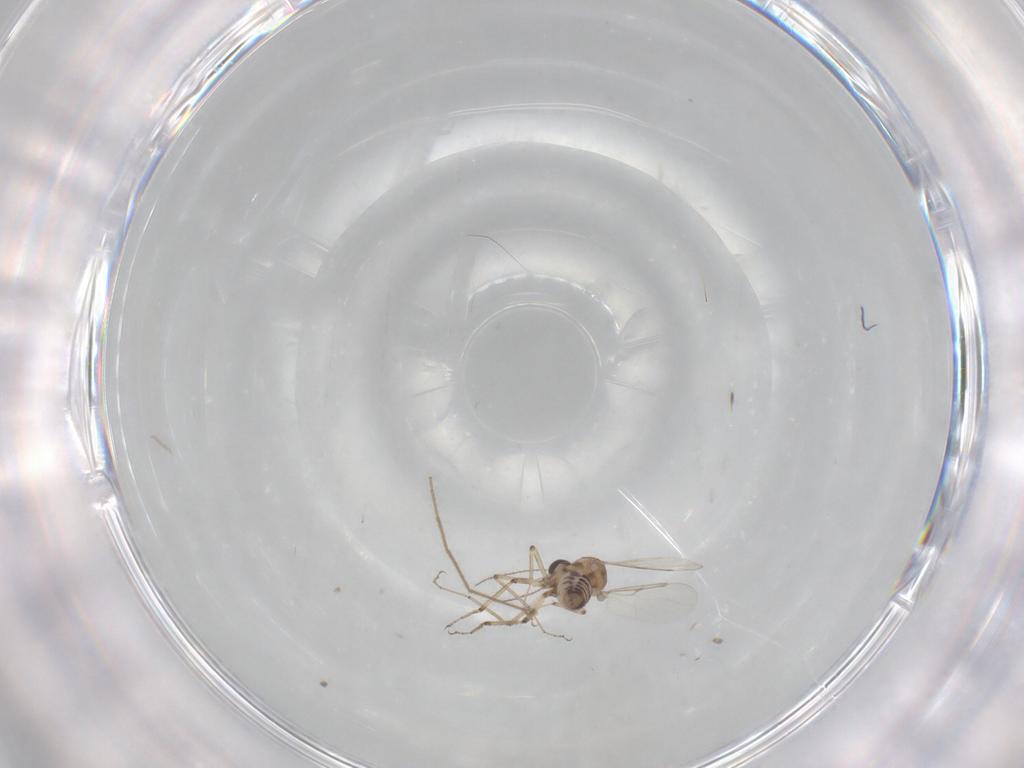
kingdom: Animalia
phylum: Arthropoda
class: Insecta
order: Diptera
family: Ceratopogonidae
